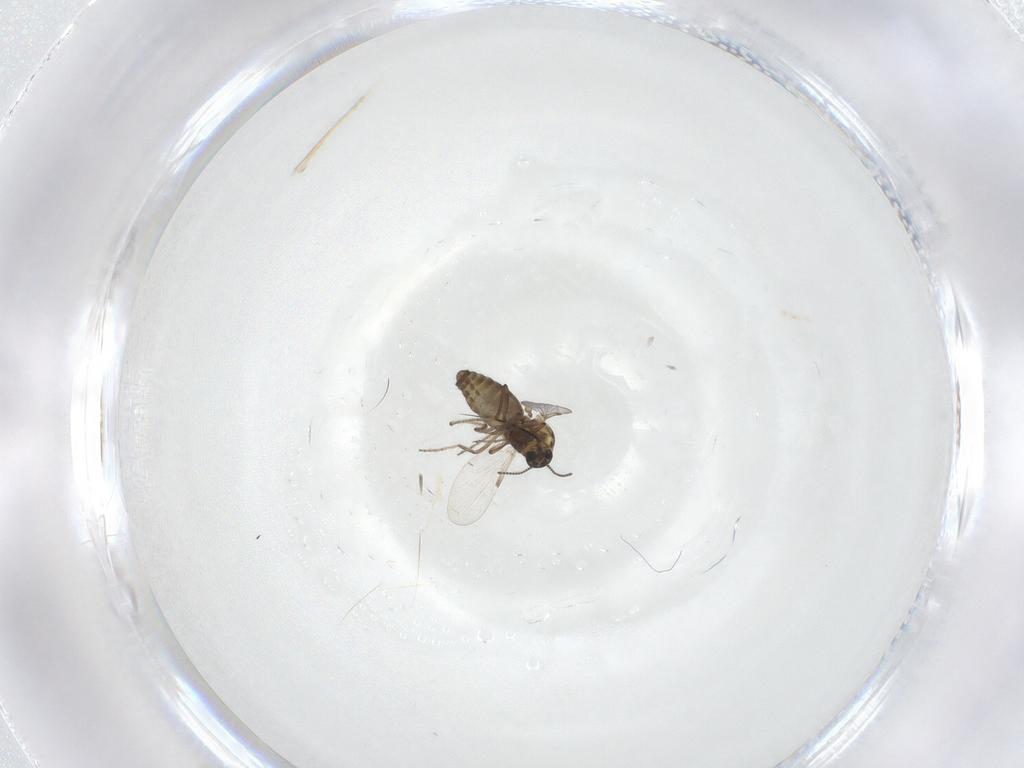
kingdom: Animalia
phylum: Arthropoda
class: Insecta
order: Diptera
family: Ceratopogonidae
